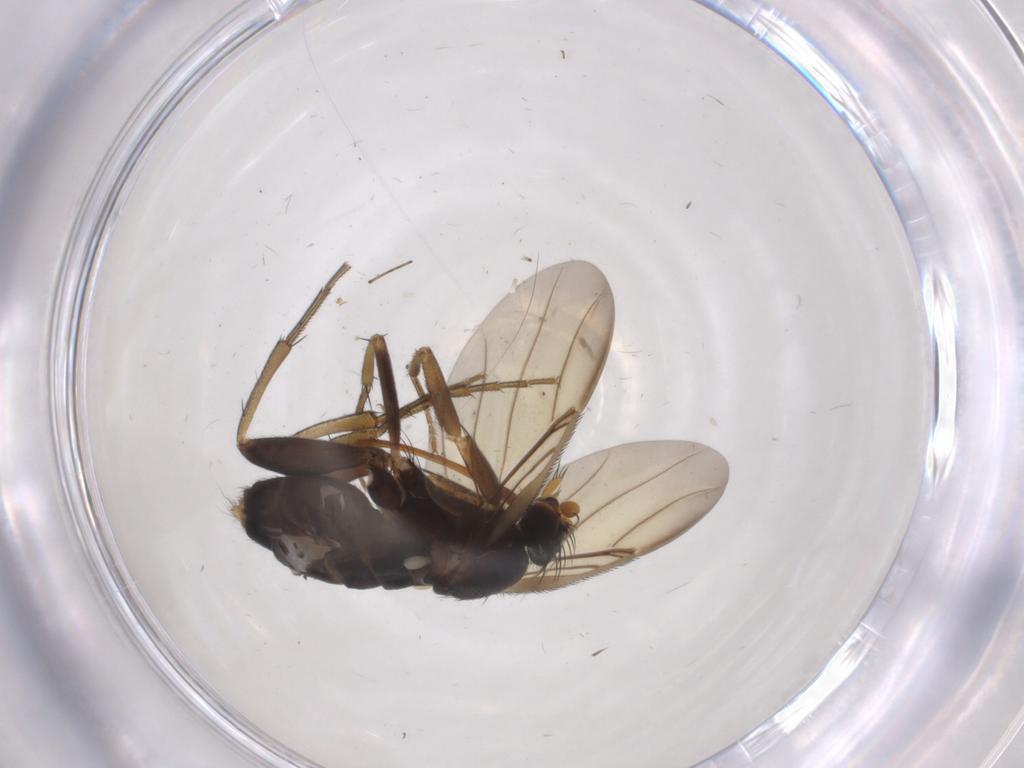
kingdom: Animalia
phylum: Arthropoda
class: Insecta
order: Diptera
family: Phoridae
